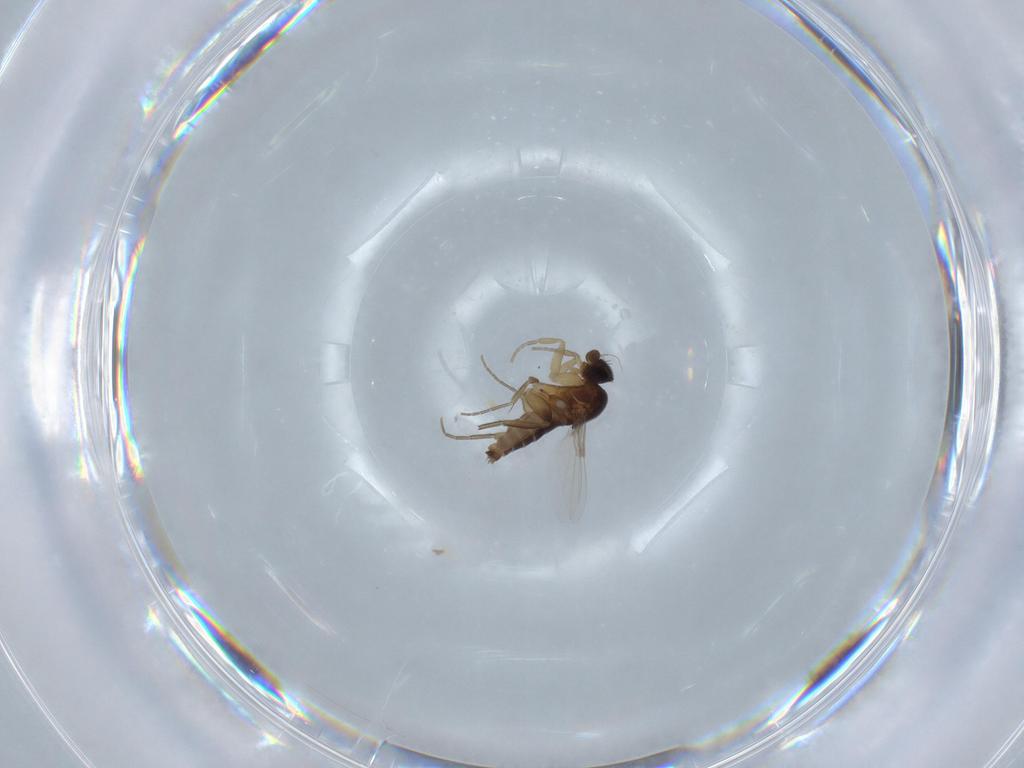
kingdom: Animalia
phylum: Arthropoda
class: Insecta
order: Diptera
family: Phoridae
